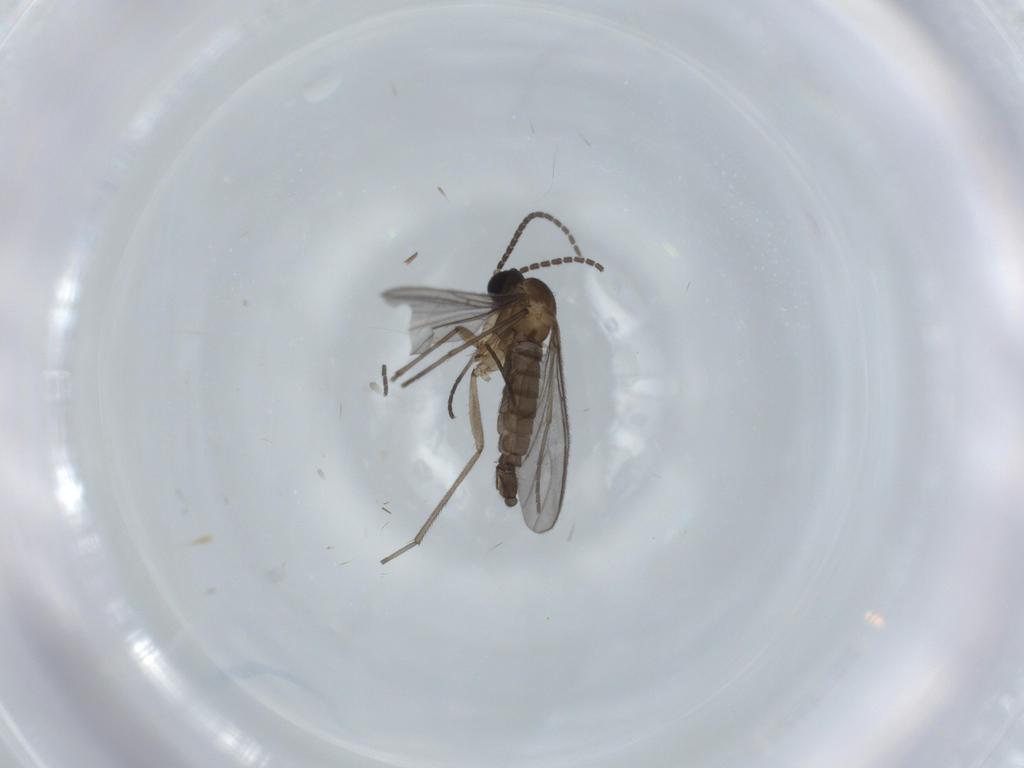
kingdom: Animalia
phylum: Arthropoda
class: Insecta
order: Diptera
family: Sciaridae
